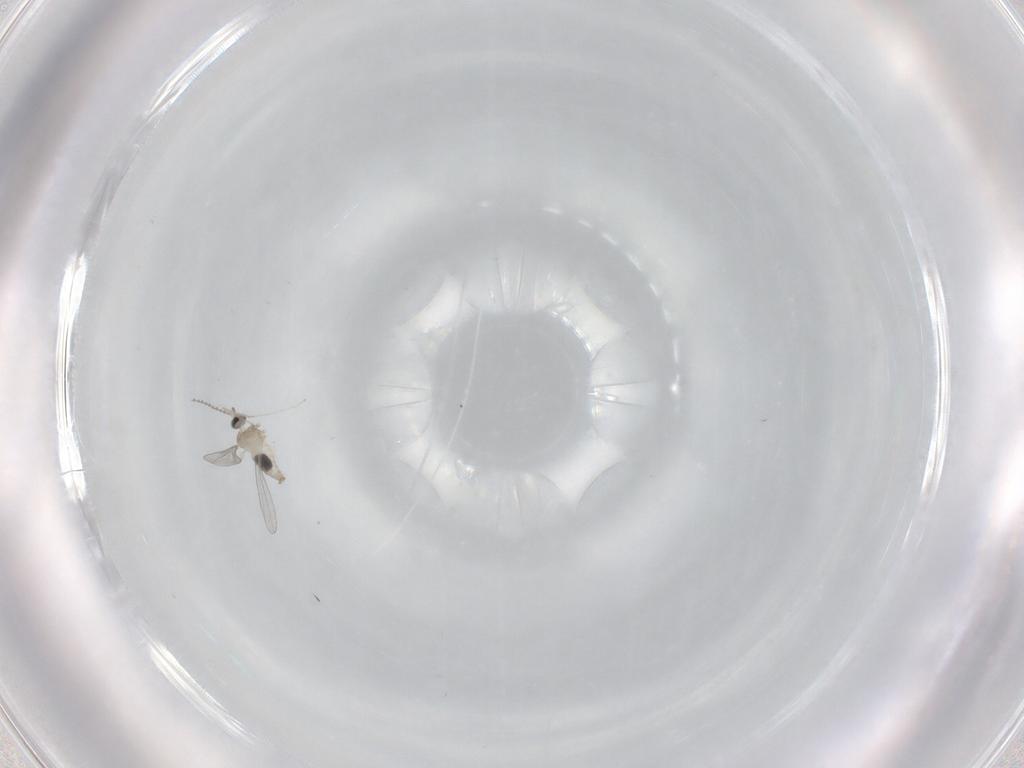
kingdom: Animalia
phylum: Arthropoda
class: Insecta
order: Diptera
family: Cecidomyiidae
